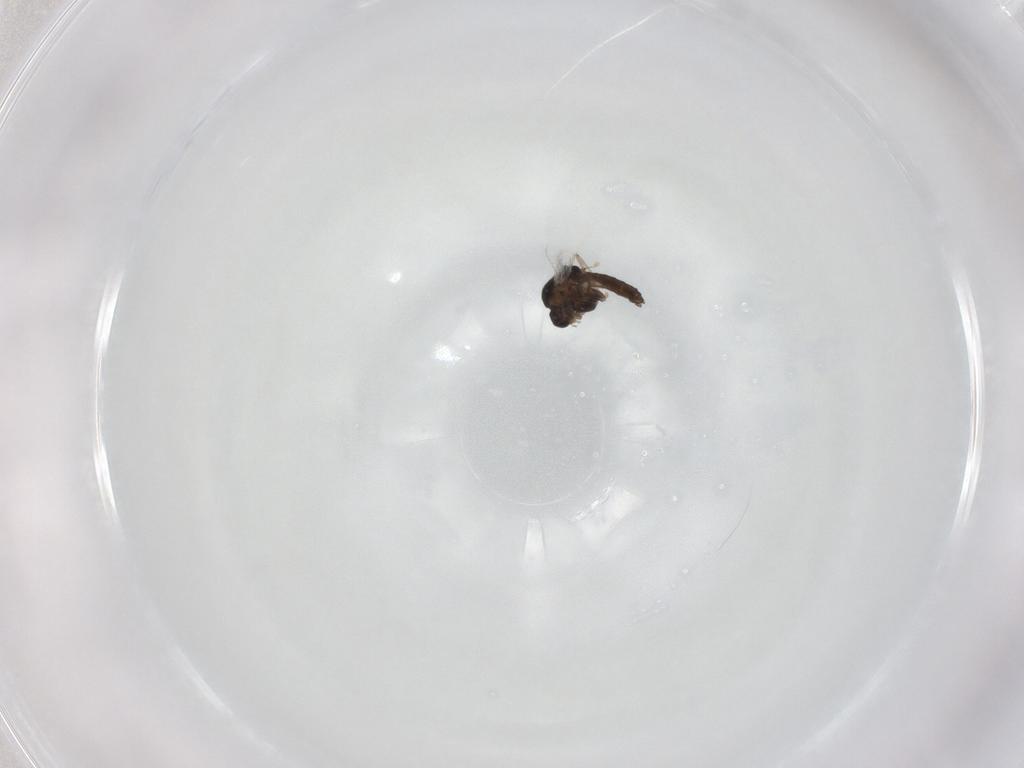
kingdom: Animalia
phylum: Arthropoda
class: Insecta
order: Diptera
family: Chironomidae
